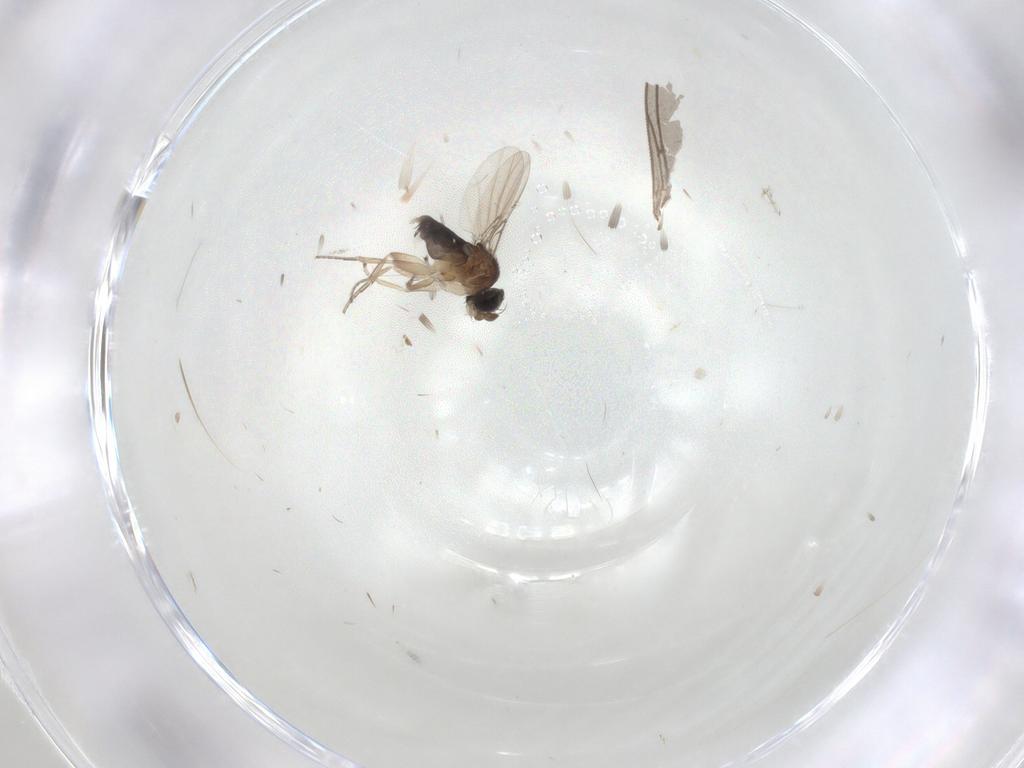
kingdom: Animalia
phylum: Arthropoda
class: Insecta
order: Diptera
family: Phoridae
